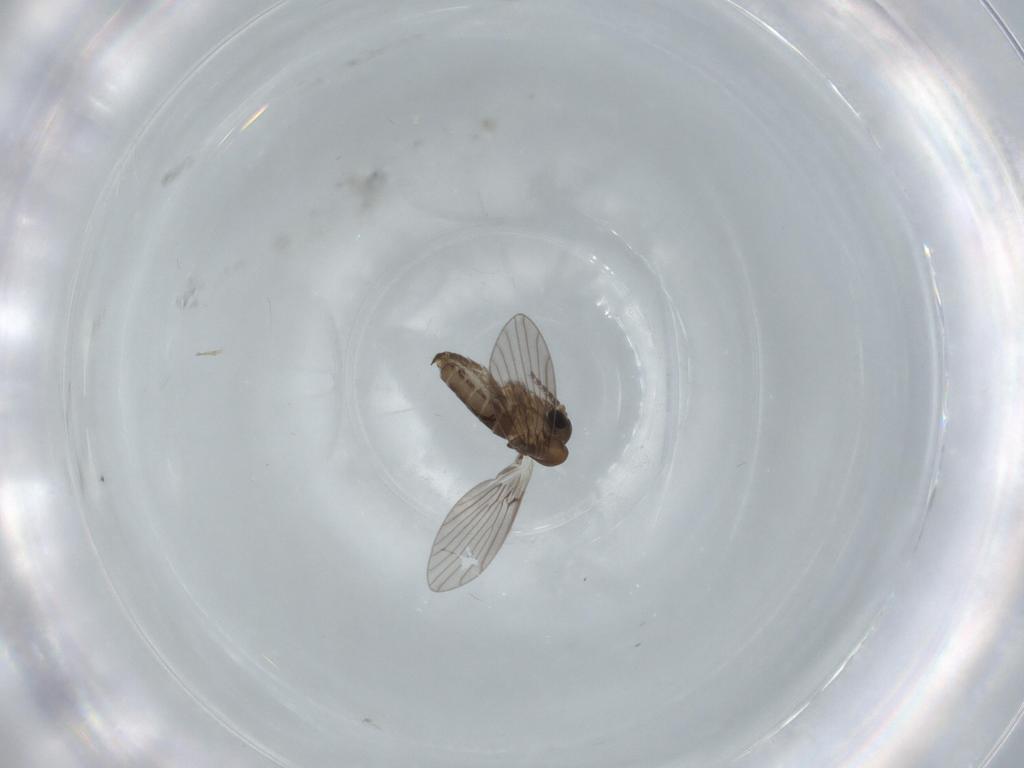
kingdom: Animalia
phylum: Arthropoda
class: Insecta
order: Diptera
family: Psychodidae
